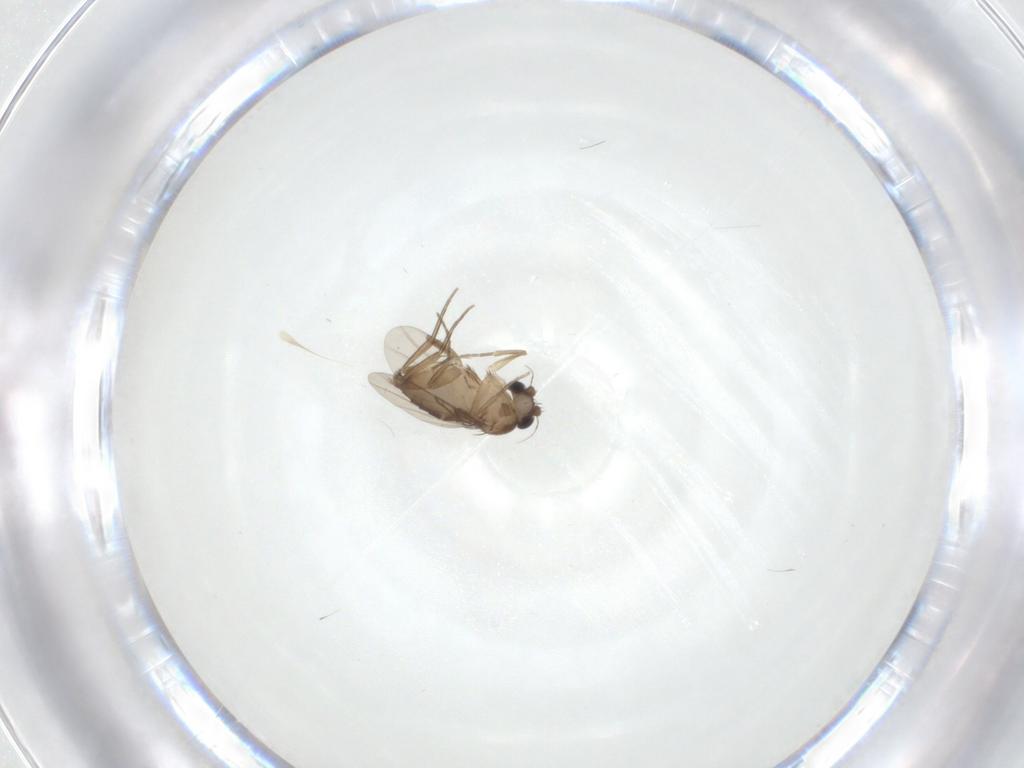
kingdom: Animalia
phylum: Arthropoda
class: Insecta
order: Diptera
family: Phoridae
